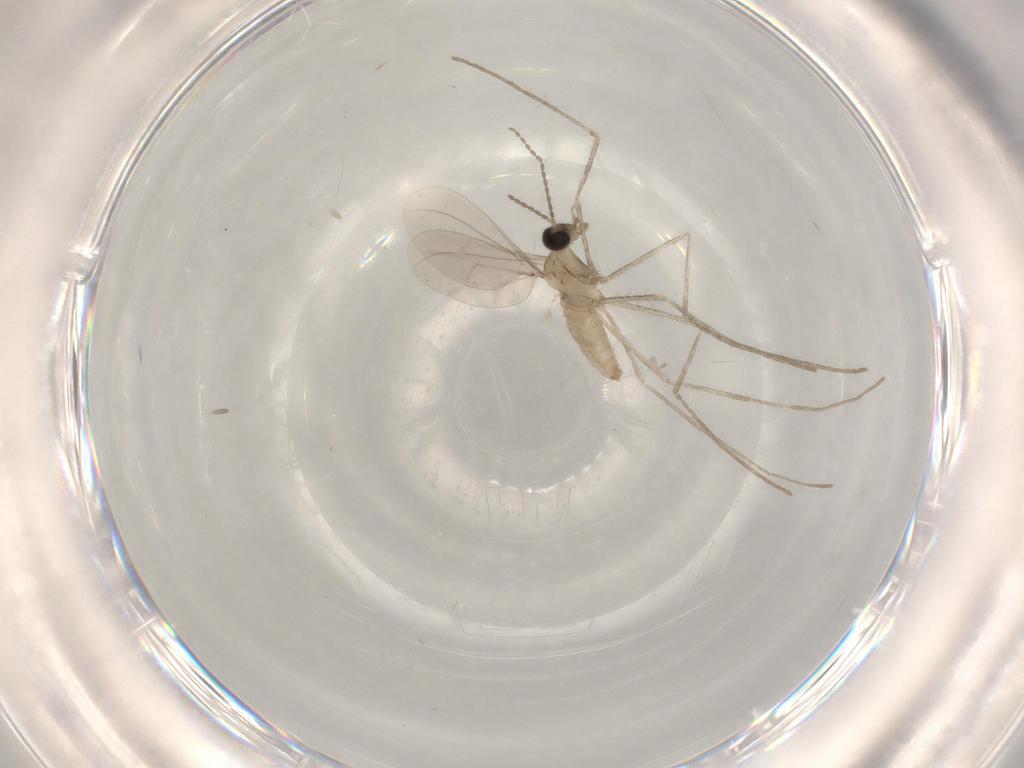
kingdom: Animalia
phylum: Arthropoda
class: Insecta
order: Diptera
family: Cecidomyiidae
